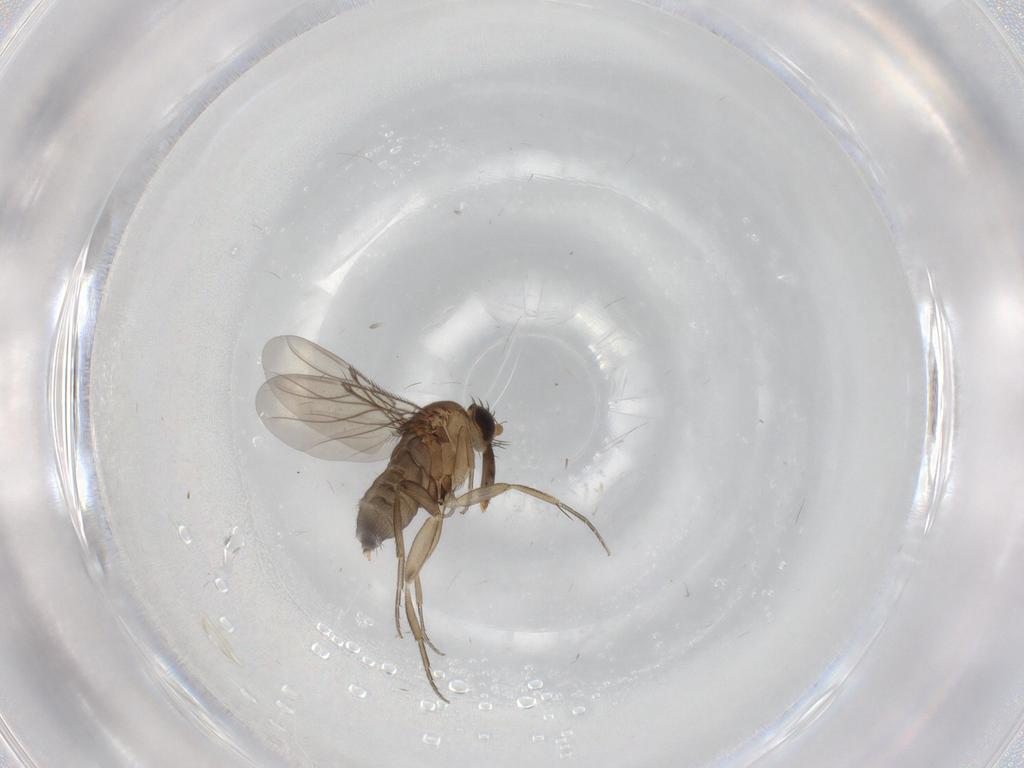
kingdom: Animalia
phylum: Arthropoda
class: Insecta
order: Diptera
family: Phoridae
